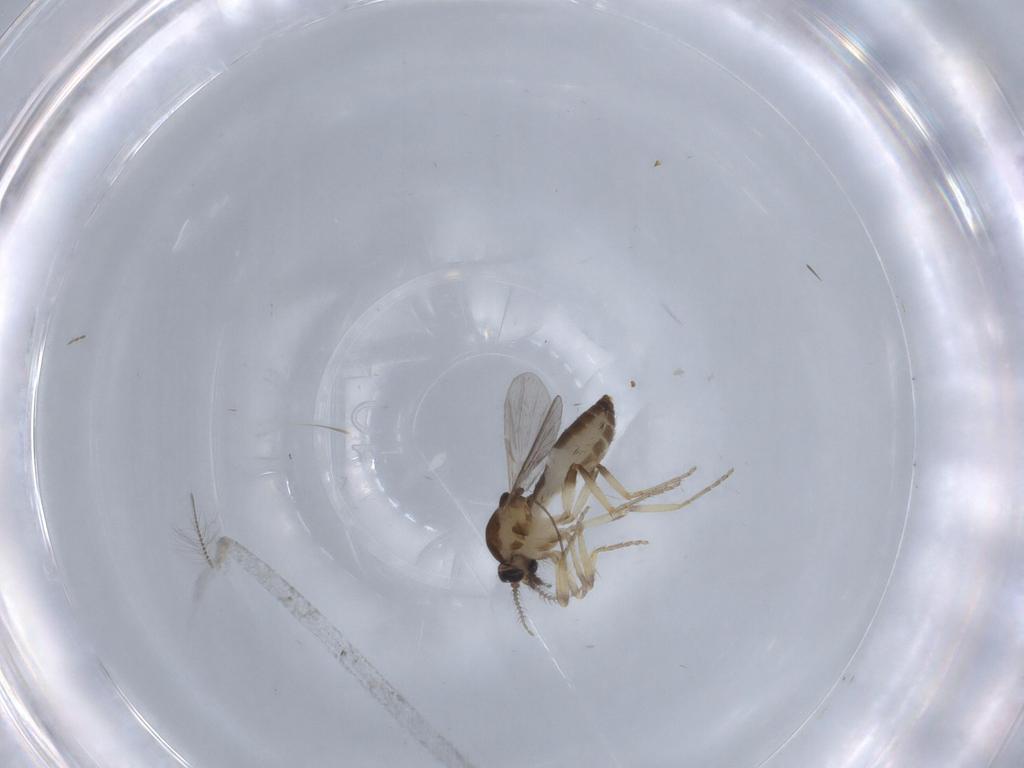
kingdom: Animalia
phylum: Arthropoda
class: Insecta
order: Diptera
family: Ceratopogonidae
